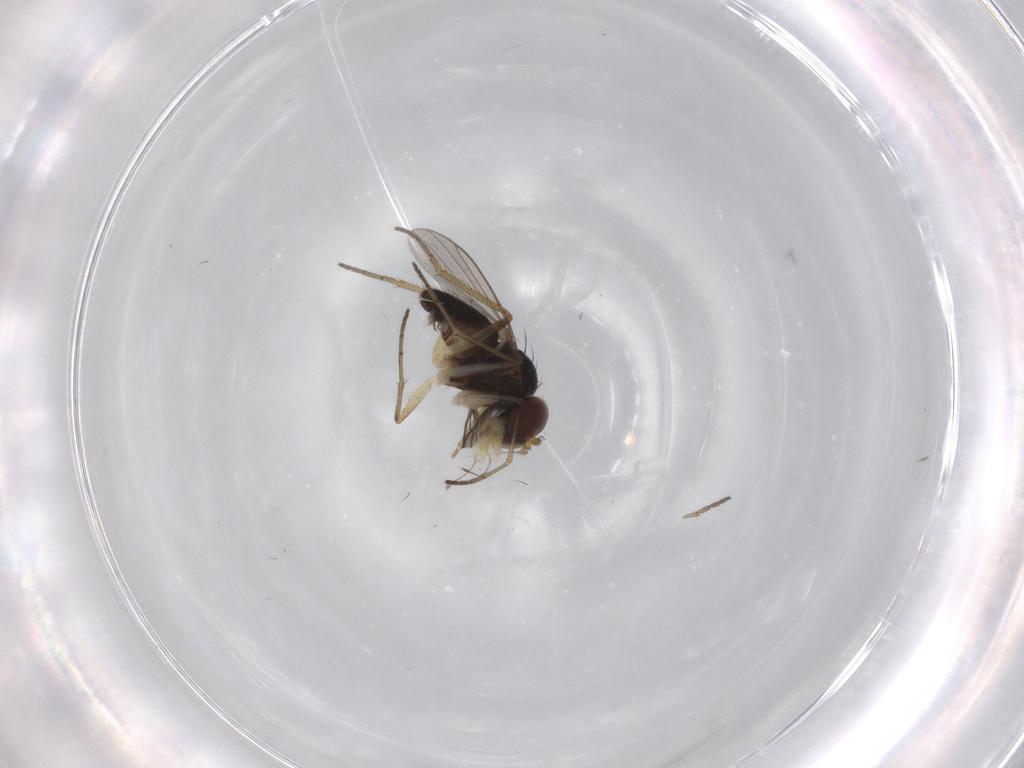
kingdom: Animalia
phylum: Arthropoda
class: Insecta
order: Diptera
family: Dolichopodidae
